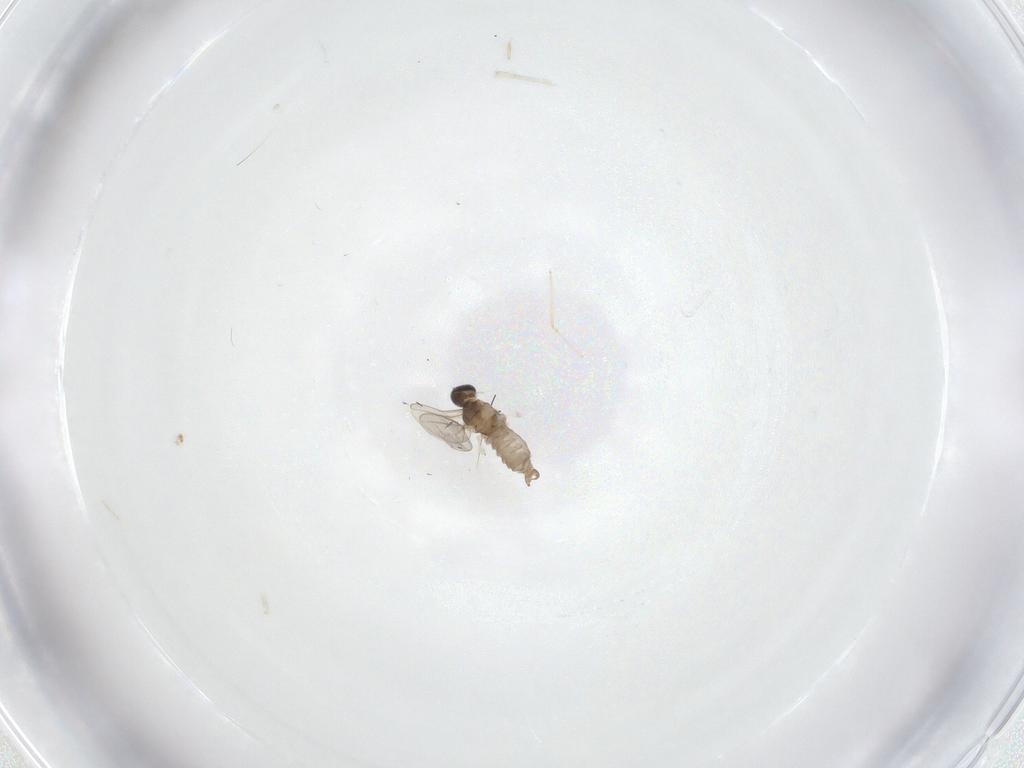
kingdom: Animalia
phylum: Arthropoda
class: Insecta
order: Diptera
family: Cecidomyiidae
